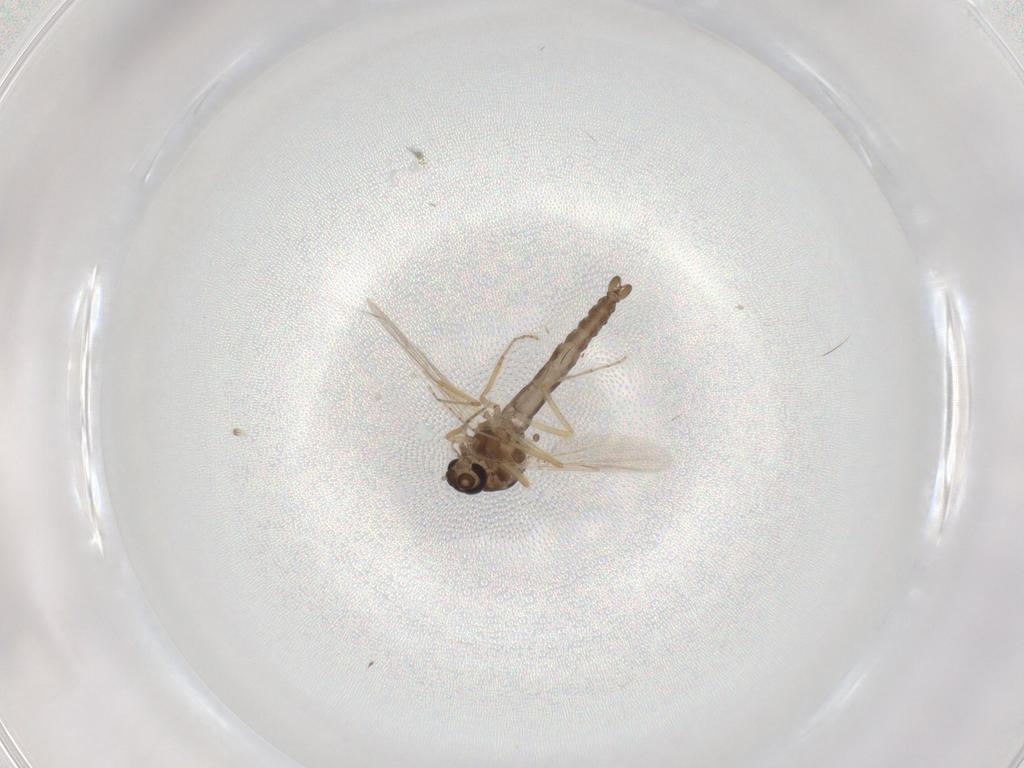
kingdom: Animalia
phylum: Arthropoda
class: Insecta
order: Diptera
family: Ceratopogonidae
